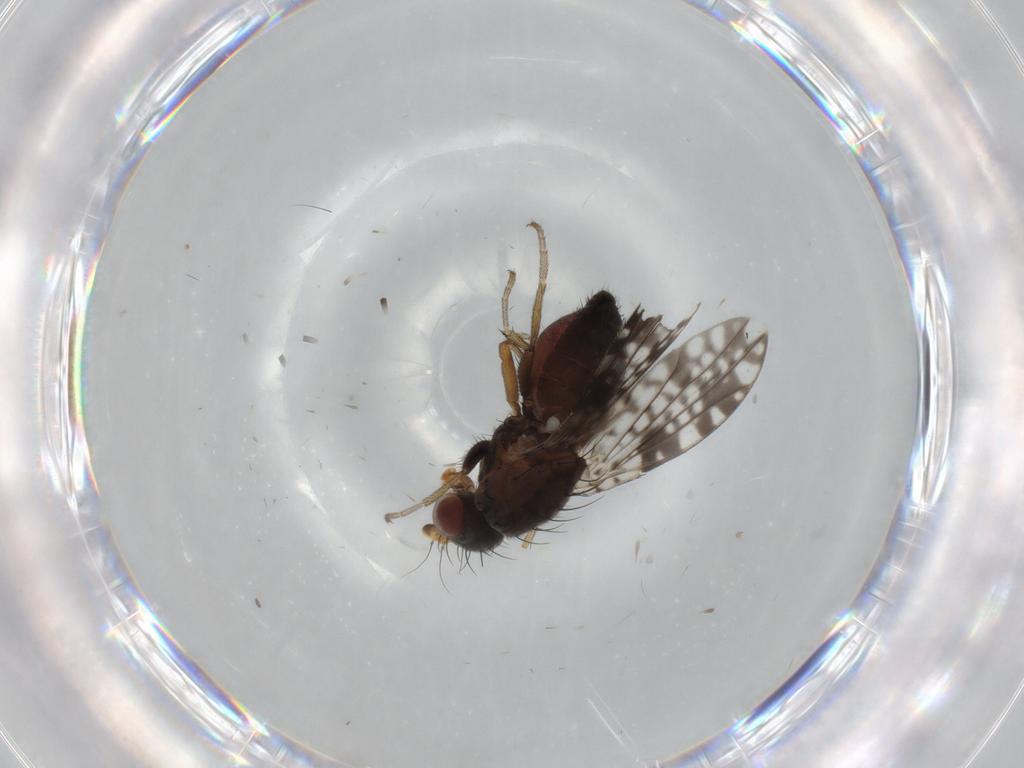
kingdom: Animalia
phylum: Arthropoda
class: Insecta
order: Diptera
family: Tephritidae
